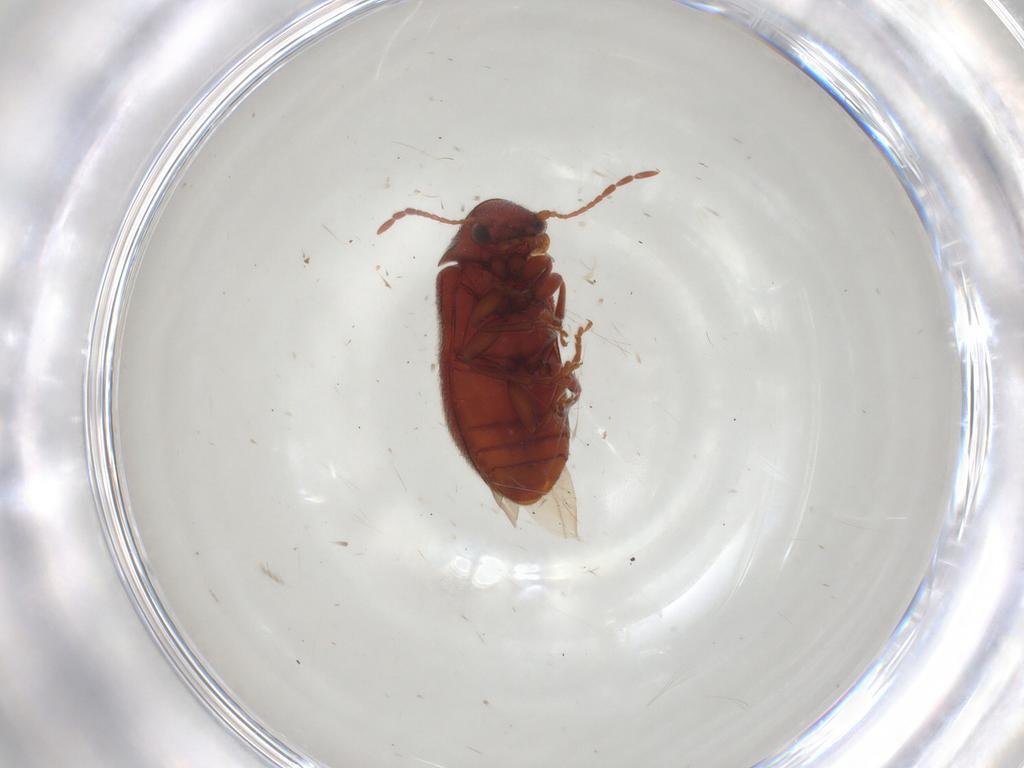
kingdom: Animalia
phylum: Arthropoda
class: Insecta
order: Coleoptera
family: Ptinidae
